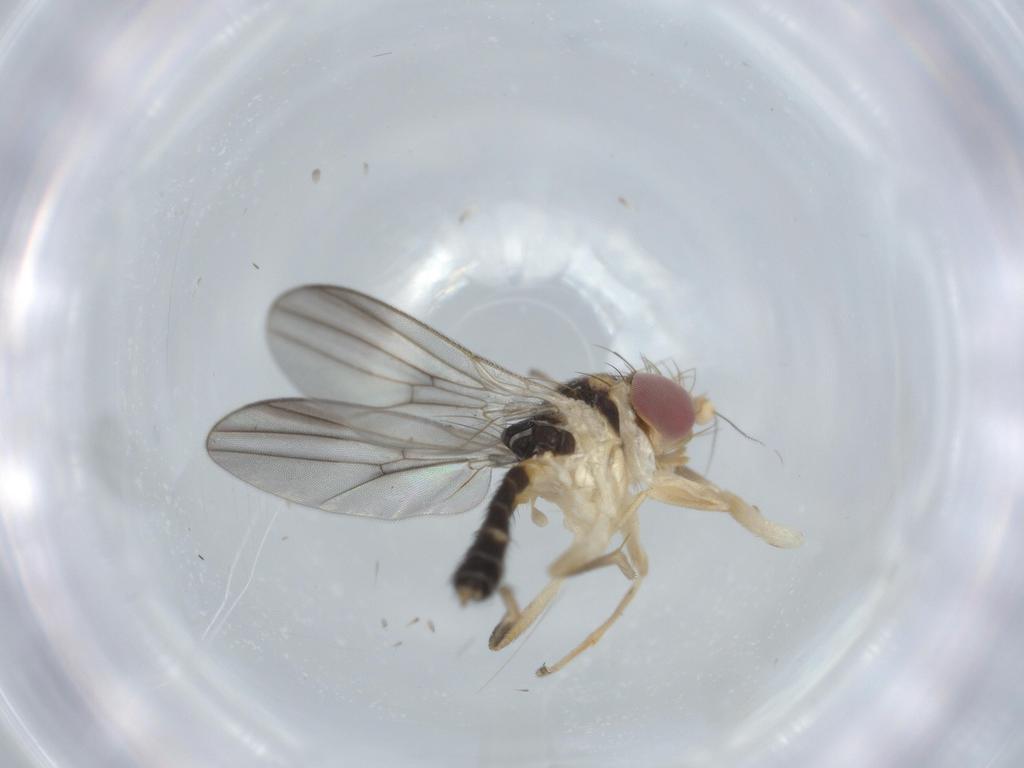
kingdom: Animalia
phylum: Arthropoda
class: Insecta
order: Diptera
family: Clusiidae
